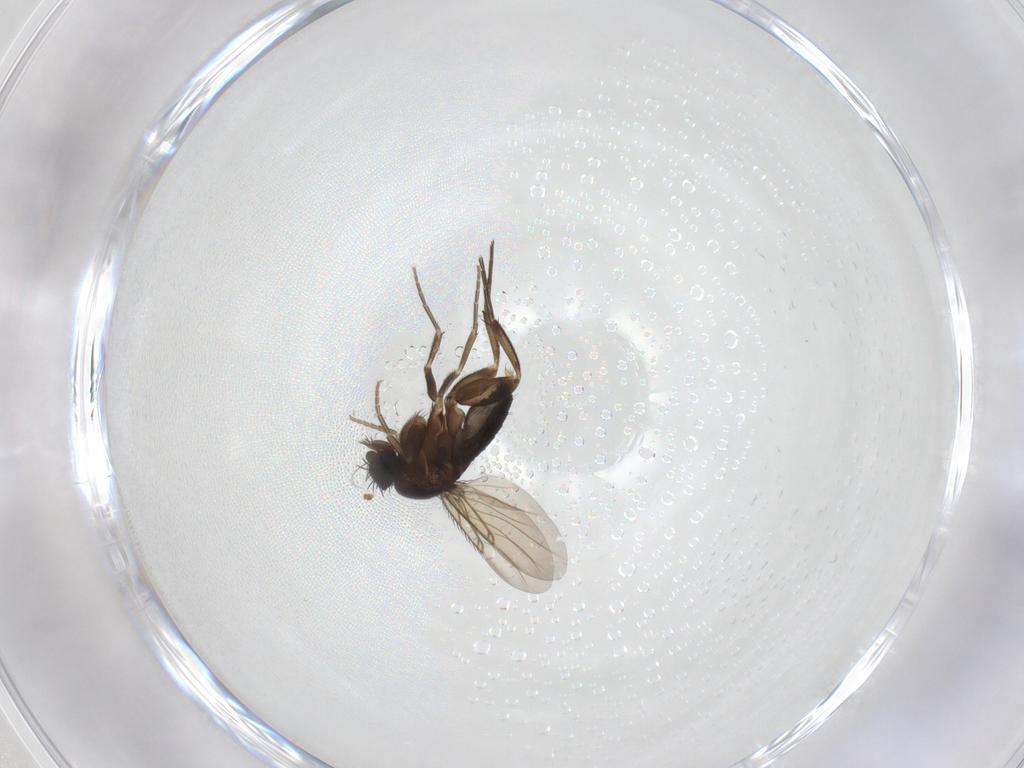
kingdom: Animalia
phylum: Arthropoda
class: Insecta
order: Diptera
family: Phoridae
